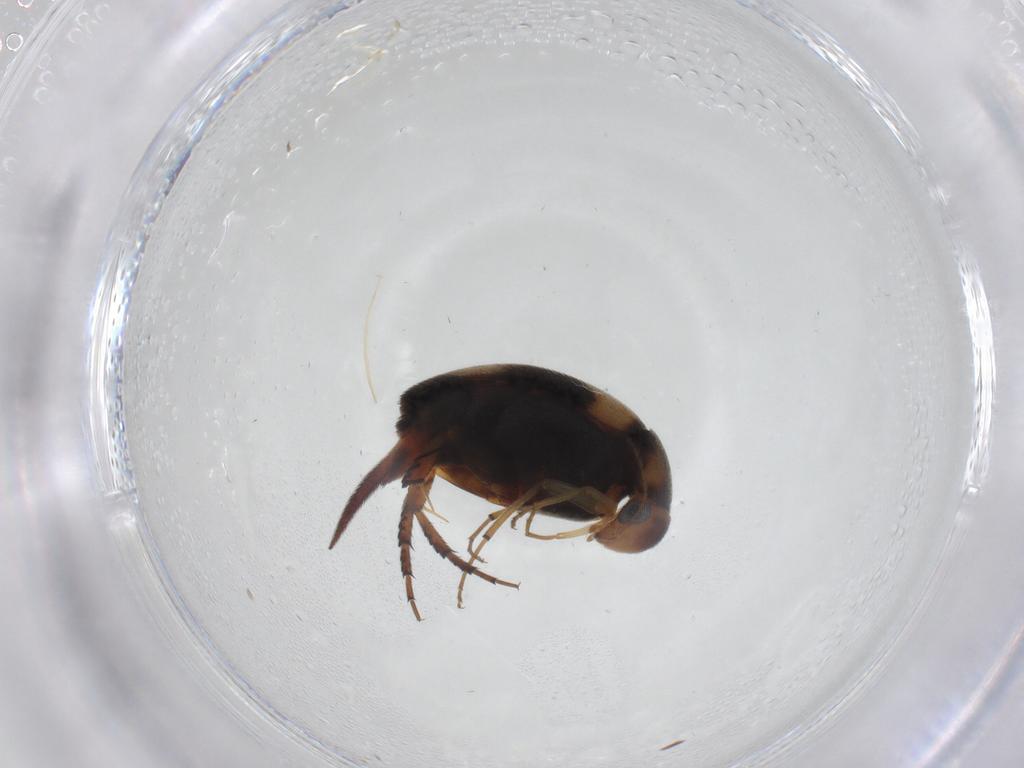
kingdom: Animalia
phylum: Arthropoda
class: Insecta
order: Coleoptera
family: Mordellidae
